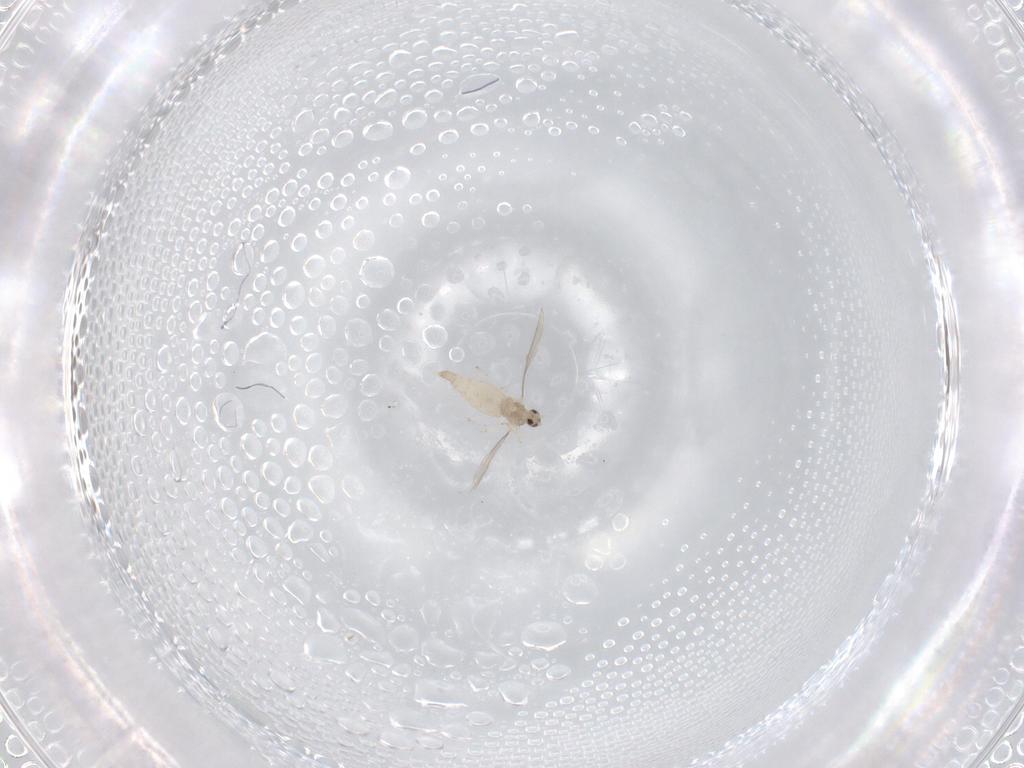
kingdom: Animalia
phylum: Arthropoda
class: Insecta
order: Diptera
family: Cecidomyiidae
